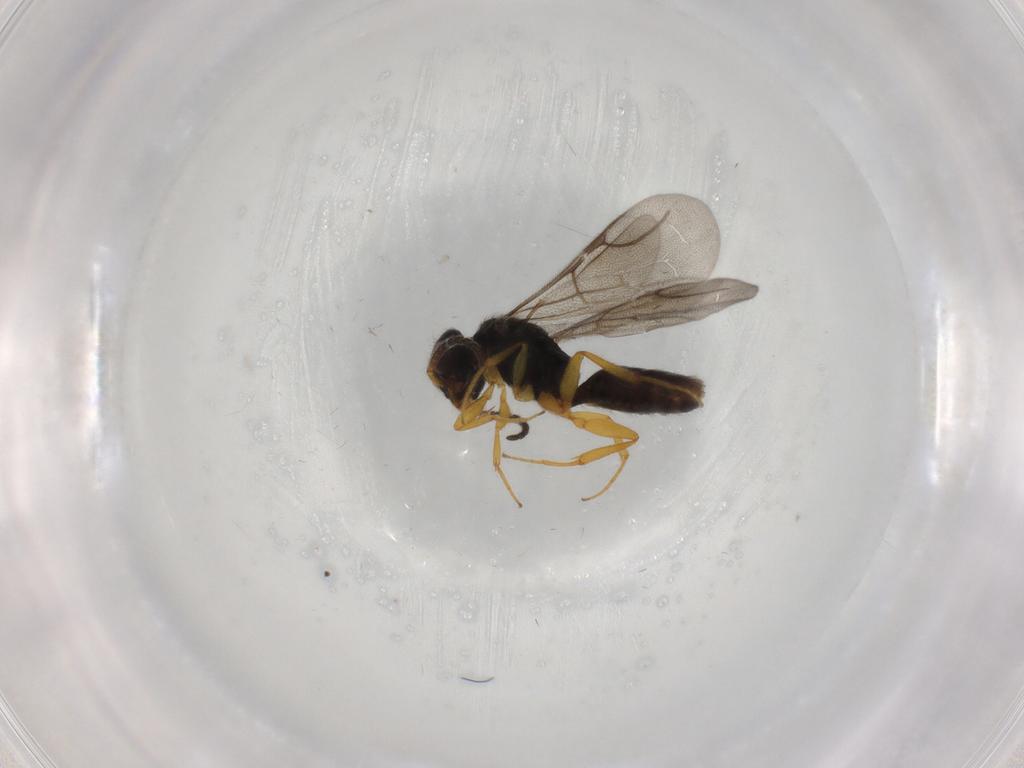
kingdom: Animalia
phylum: Arthropoda
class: Insecta
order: Hymenoptera
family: Bethylidae
